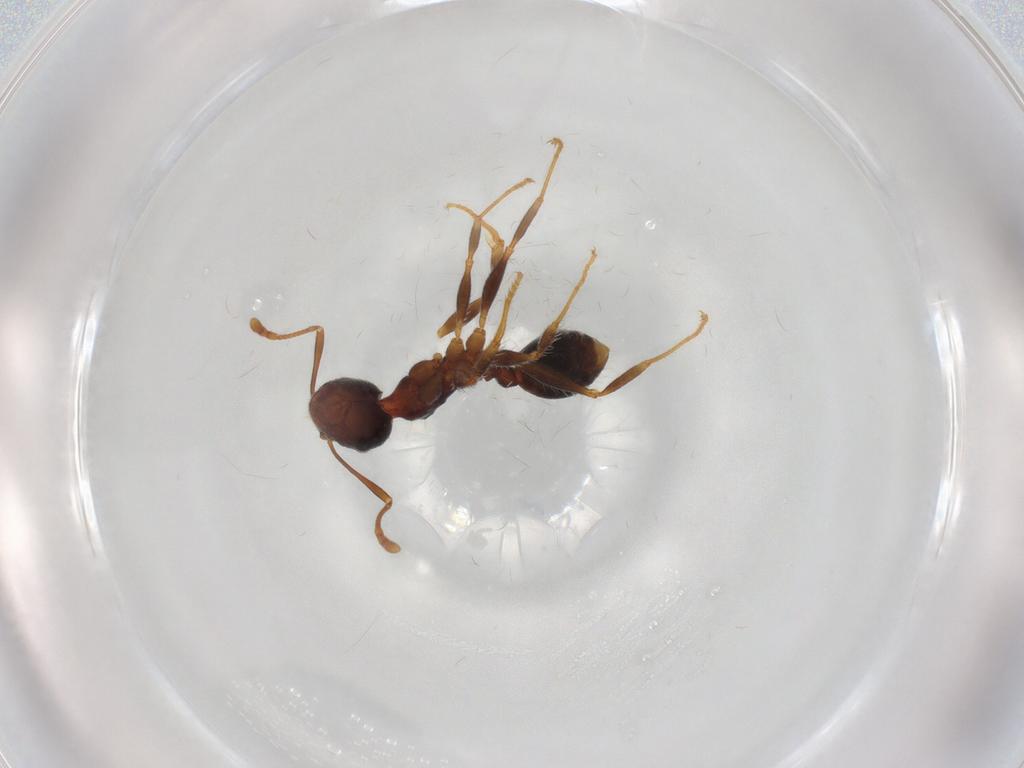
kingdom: Animalia
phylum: Arthropoda
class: Insecta
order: Hymenoptera
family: Formicidae
